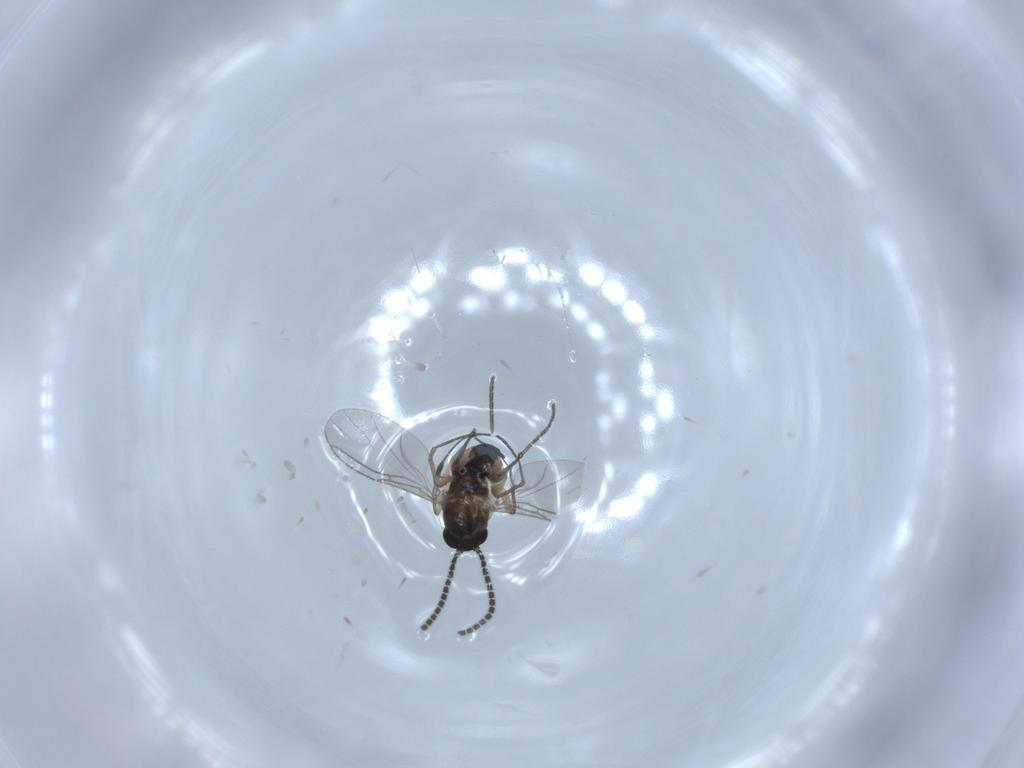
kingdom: Animalia
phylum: Arthropoda
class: Insecta
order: Diptera
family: Sciaridae
